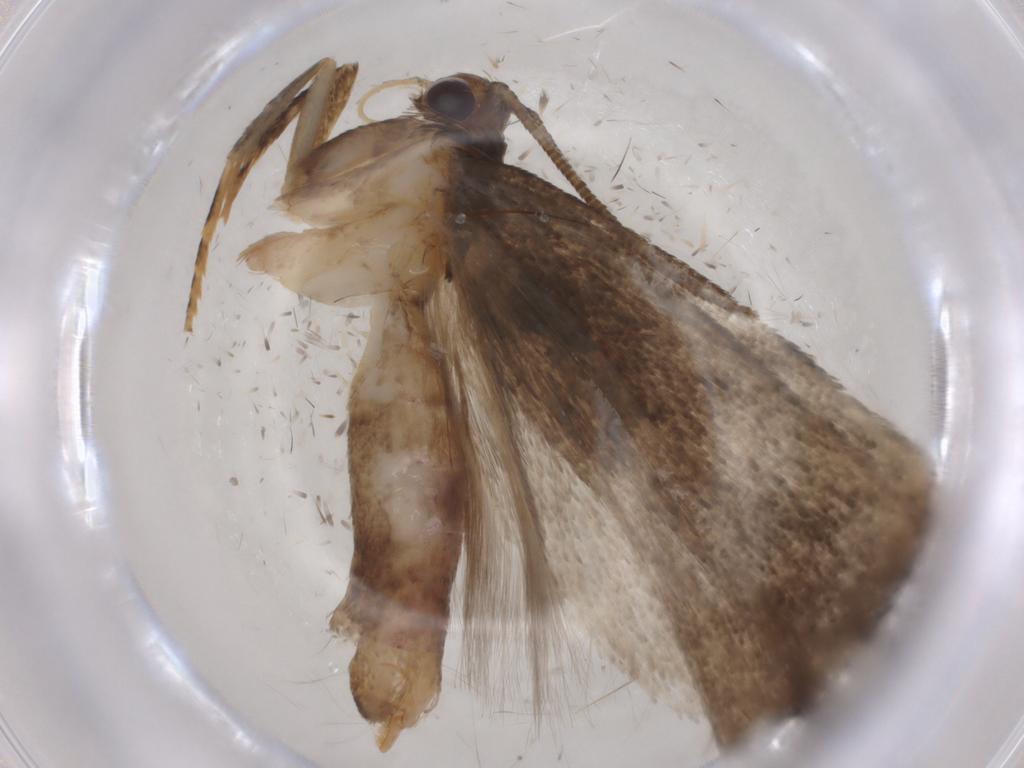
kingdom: Animalia
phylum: Arthropoda
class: Insecta
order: Lepidoptera
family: Gelechiidae
